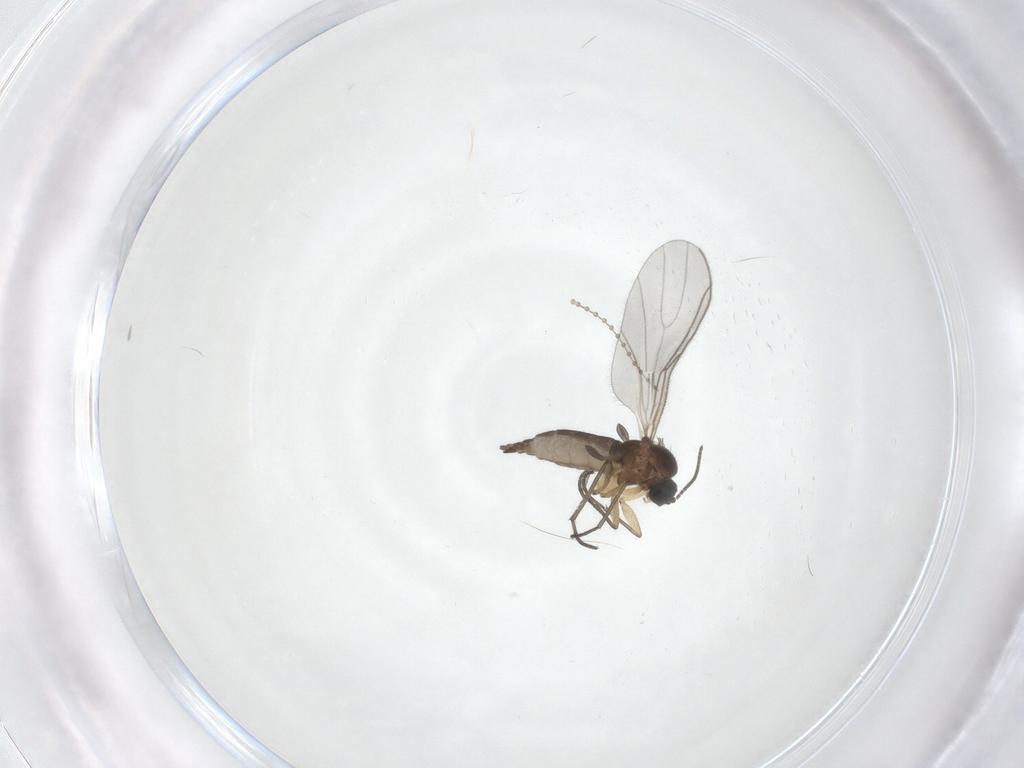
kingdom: Animalia
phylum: Arthropoda
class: Insecta
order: Diptera
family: Sciaridae
